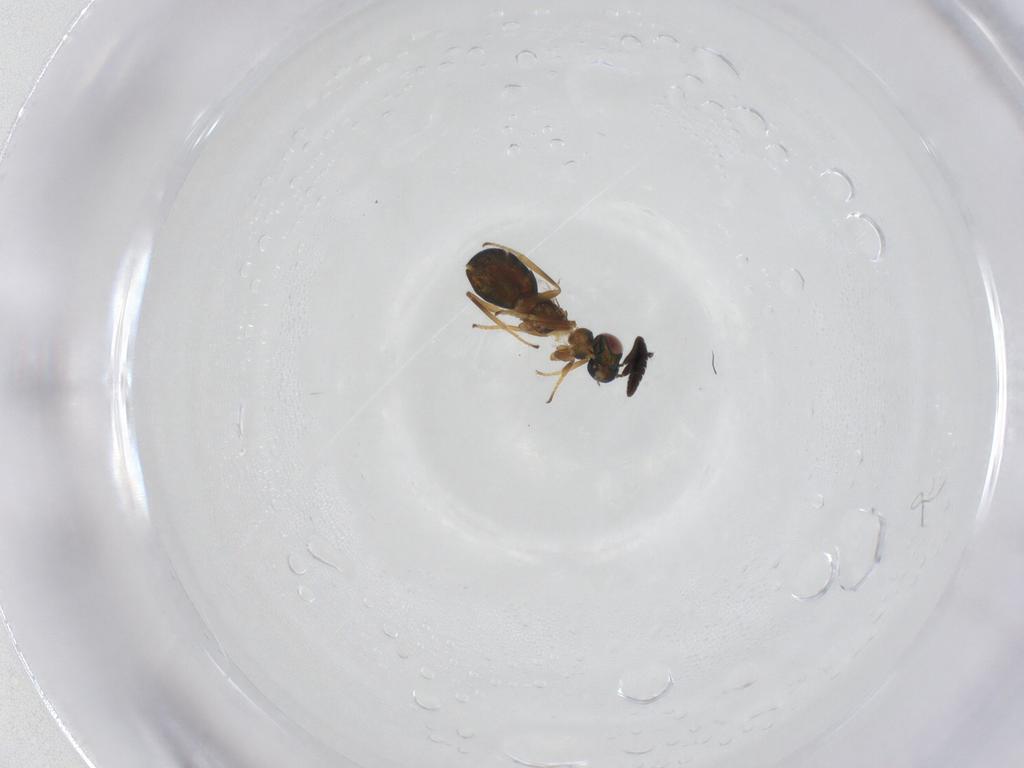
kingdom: Animalia
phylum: Arthropoda
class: Insecta
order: Hymenoptera
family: Encyrtidae
